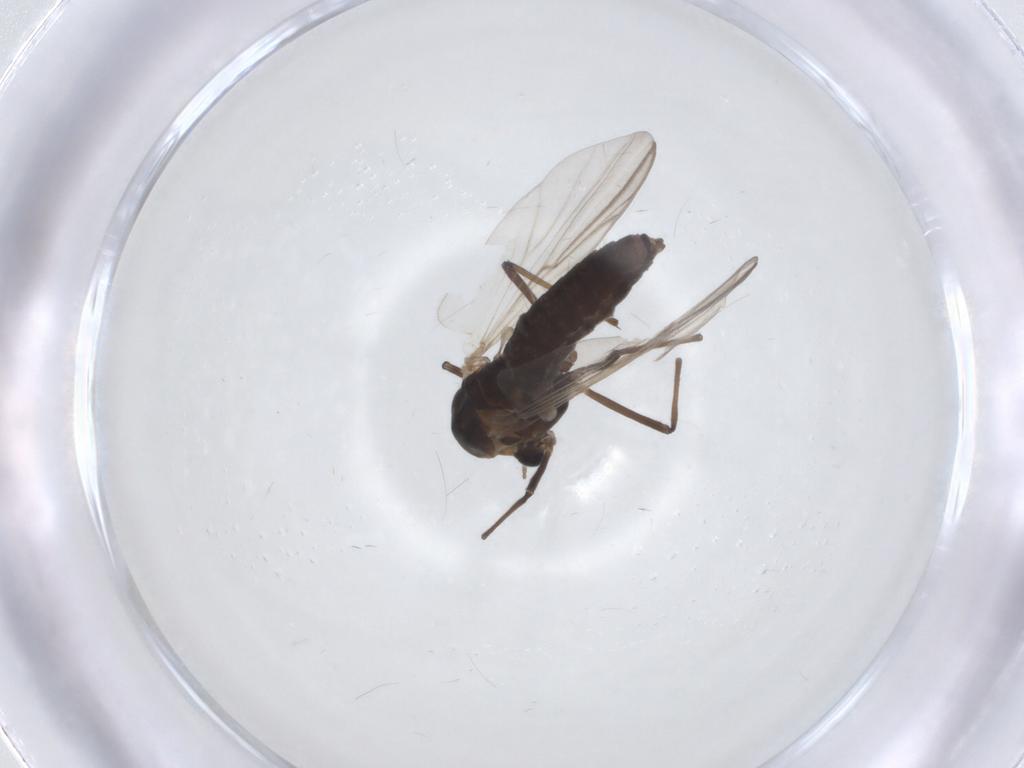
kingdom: Animalia
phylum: Arthropoda
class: Insecta
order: Diptera
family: Chironomidae
